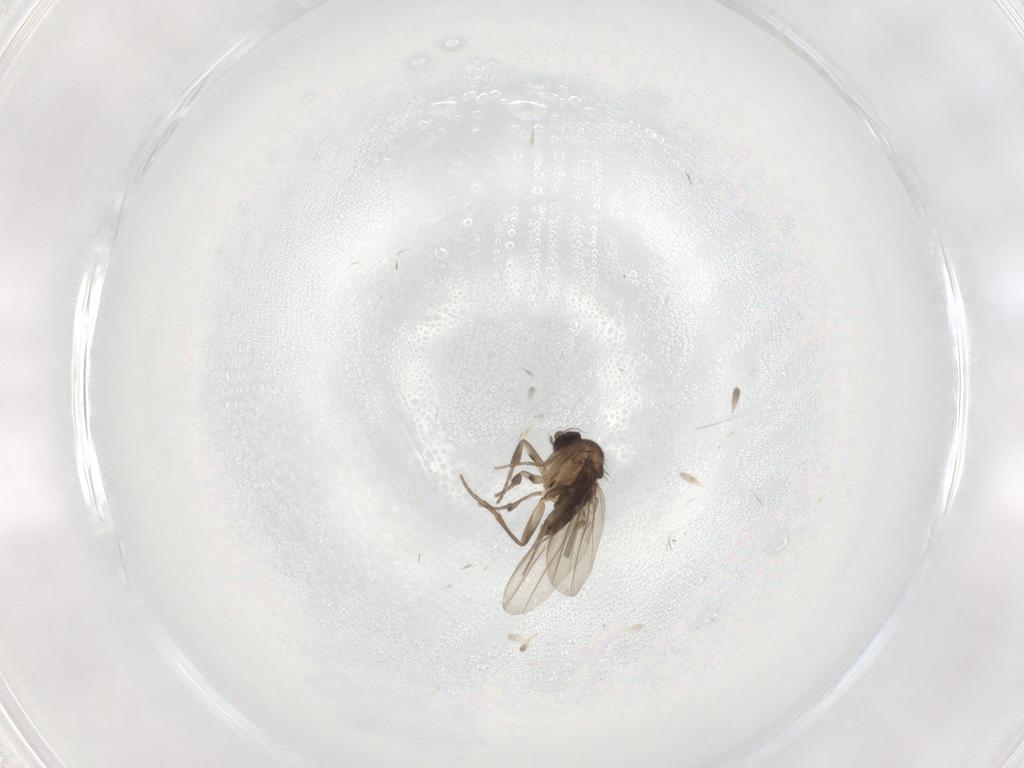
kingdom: Animalia
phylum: Arthropoda
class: Insecta
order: Diptera
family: Phoridae
